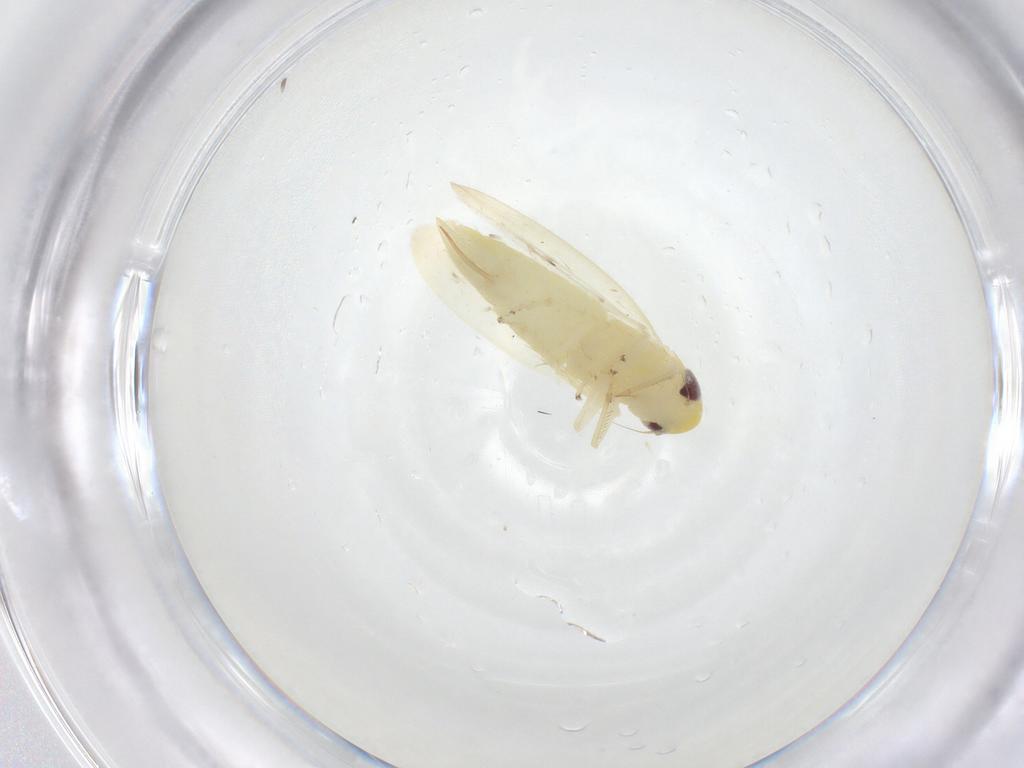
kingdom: Animalia
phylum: Arthropoda
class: Insecta
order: Hemiptera
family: Cicadellidae
